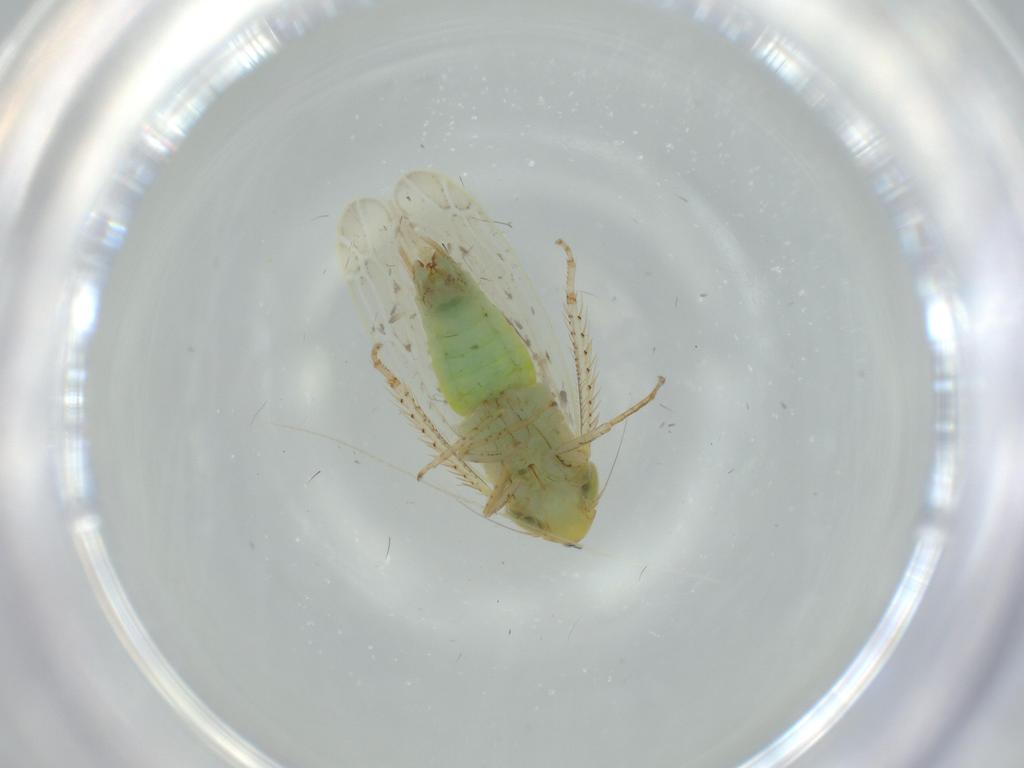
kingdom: Animalia
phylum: Arthropoda
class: Insecta
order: Hemiptera
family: Cicadellidae
